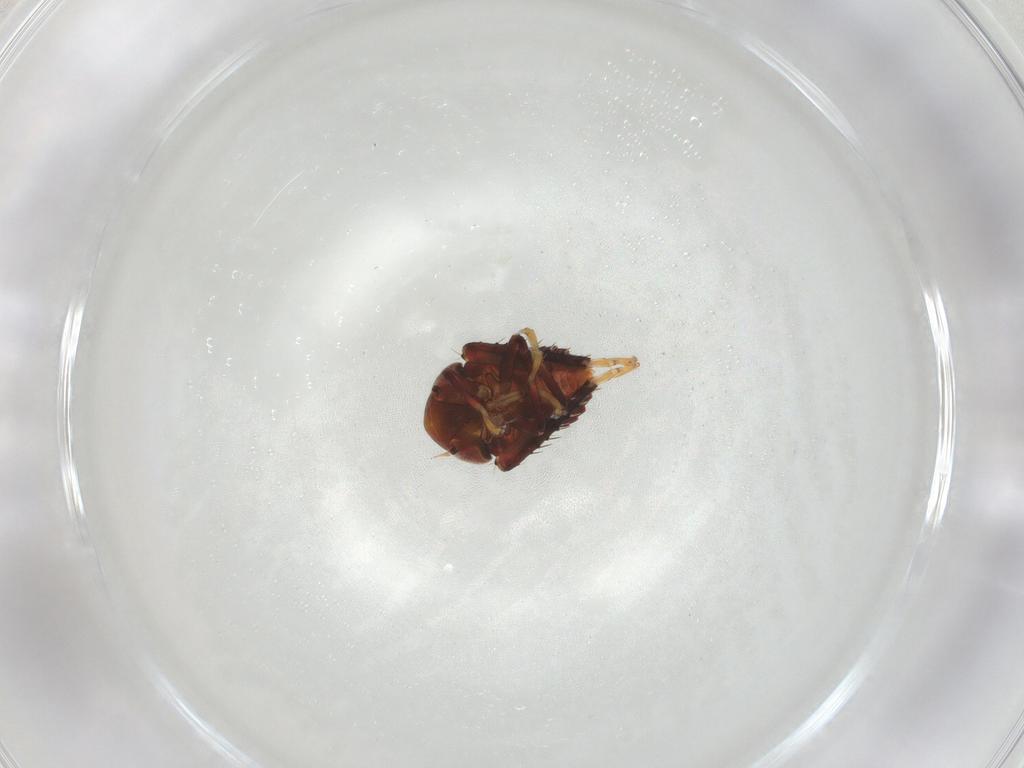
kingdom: Animalia
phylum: Arthropoda
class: Insecta
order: Hemiptera
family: Cicadellidae
